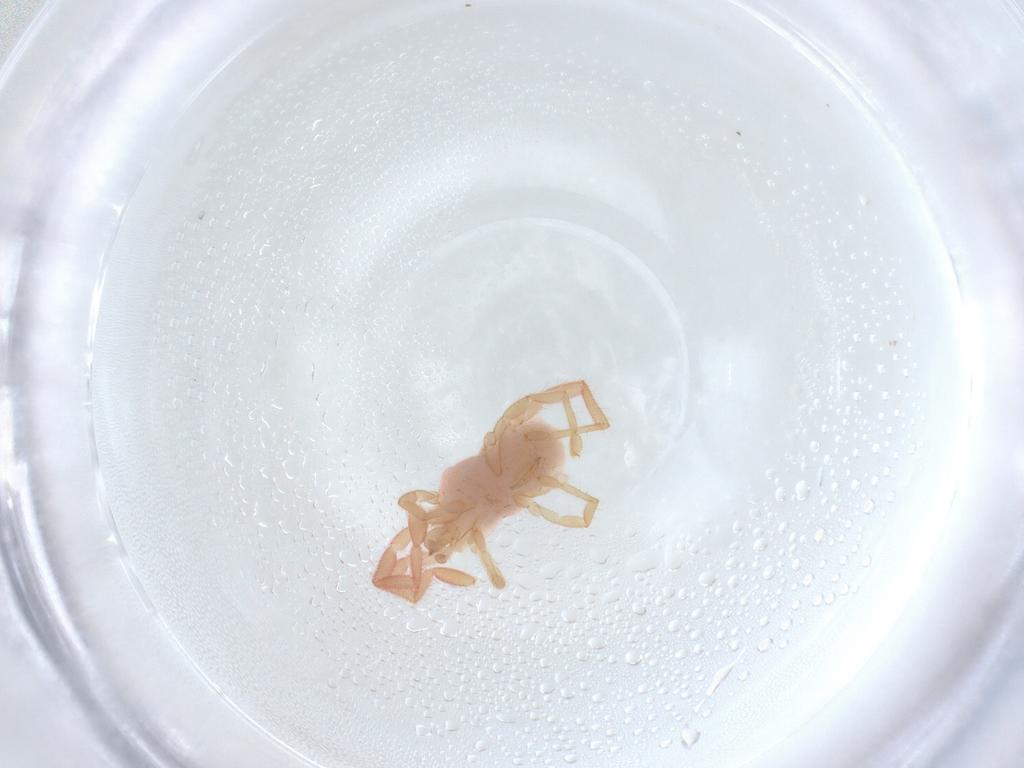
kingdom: Animalia
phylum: Arthropoda
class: Arachnida
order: Trombidiformes
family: Erythraeidae
